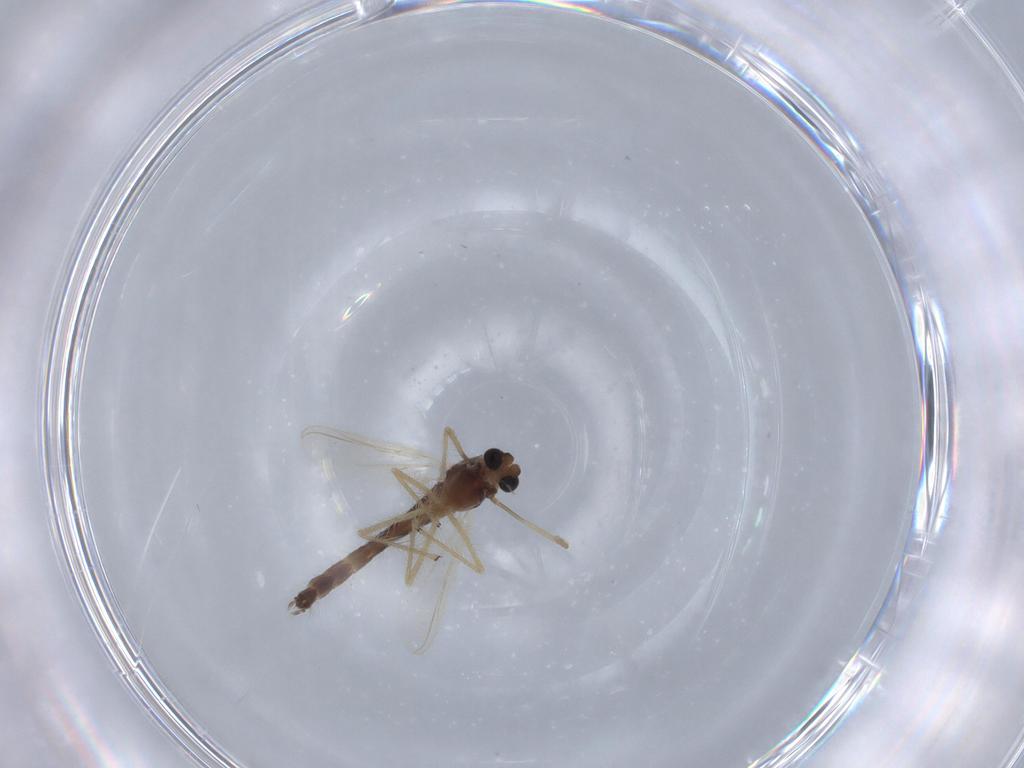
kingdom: Animalia
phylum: Arthropoda
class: Insecta
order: Diptera
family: Chironomidae
